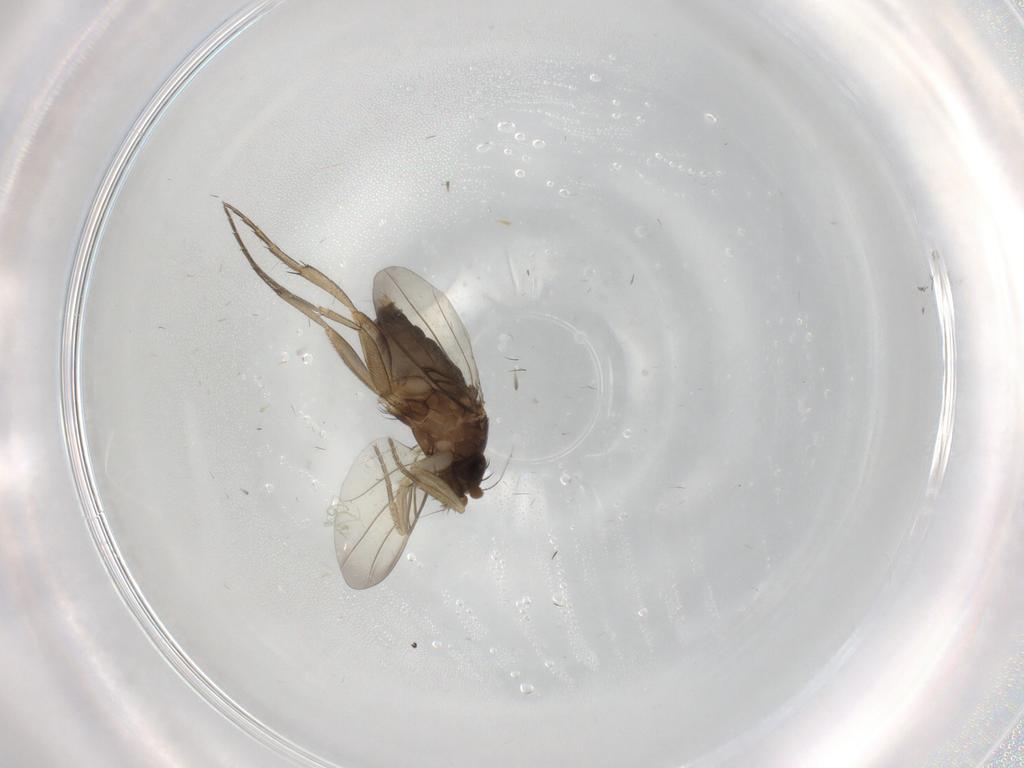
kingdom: Animalia
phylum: Arthropoda
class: Insecta
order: Diptera
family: Phoridae
